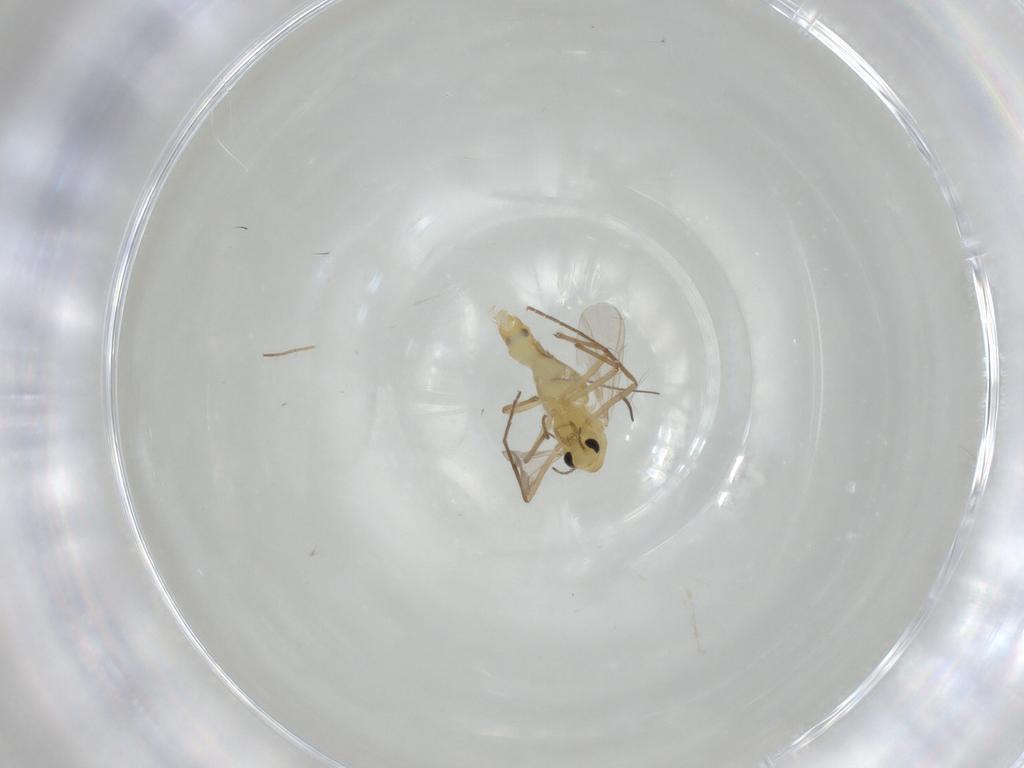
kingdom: Animalia
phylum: Arthropoda
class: Insecta
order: Diptera
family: Chironomidae
